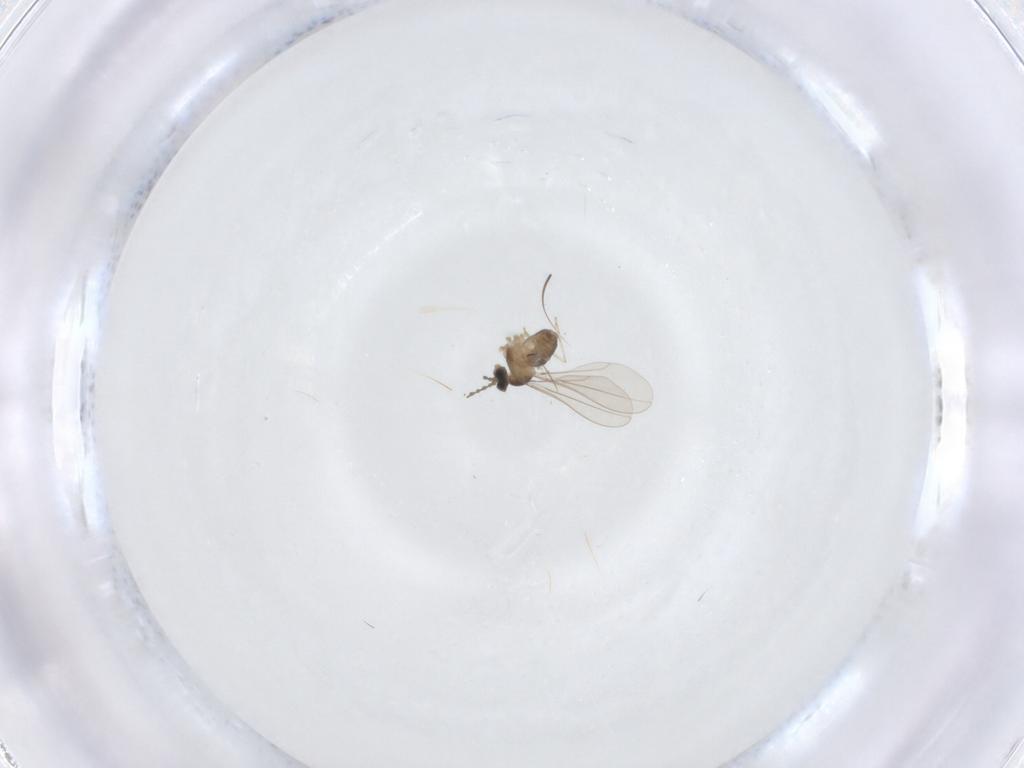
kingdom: Animalia
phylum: Arthropoda
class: Insecta
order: Diptera
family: Cecidomyiidae
